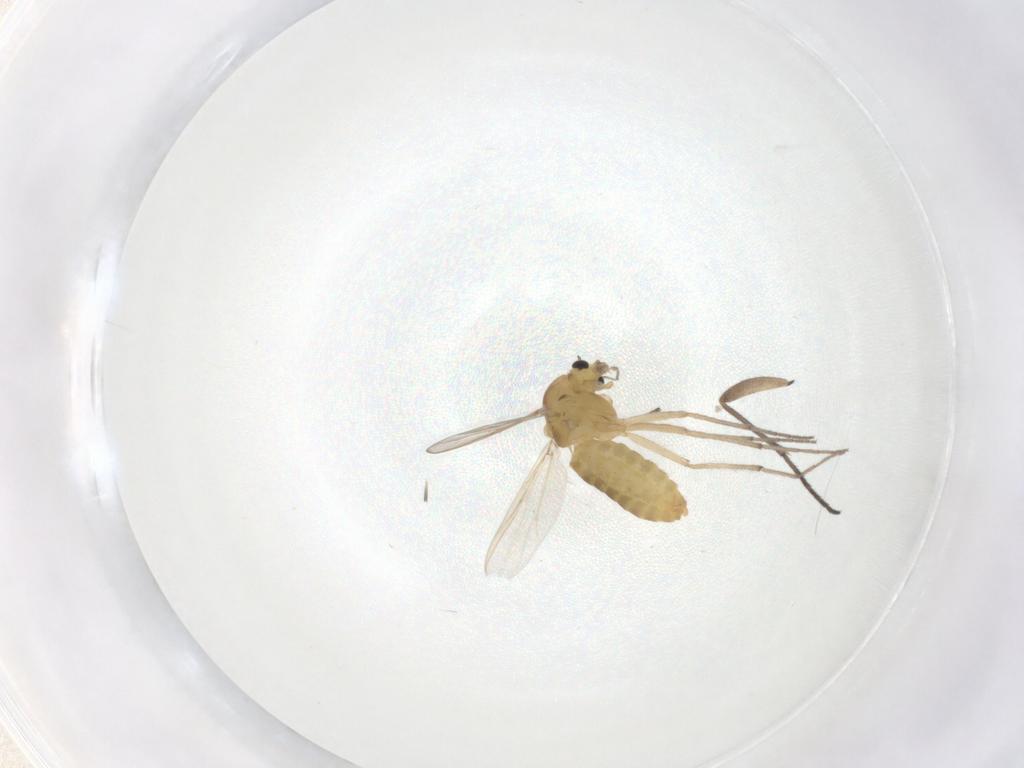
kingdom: Animalia
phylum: Arthropoda
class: Insecta
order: Diptera
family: Chironomidae
